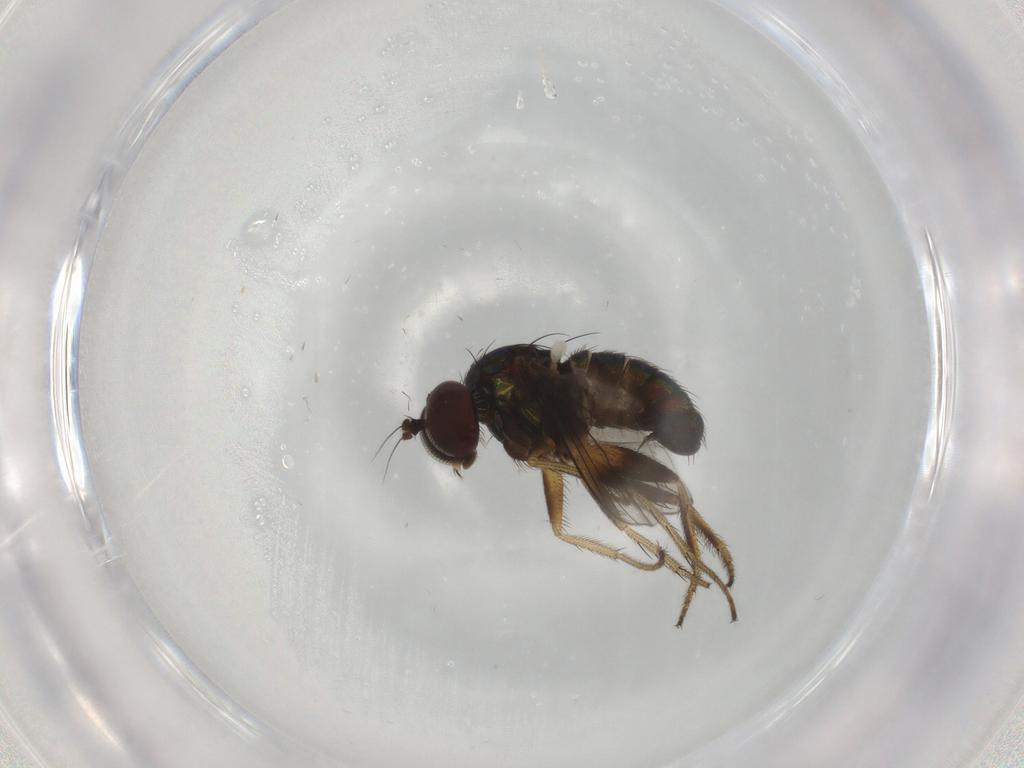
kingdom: Animalia
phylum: Arthropoda
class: Insecta
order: Diptera
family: Dolichopodidae
